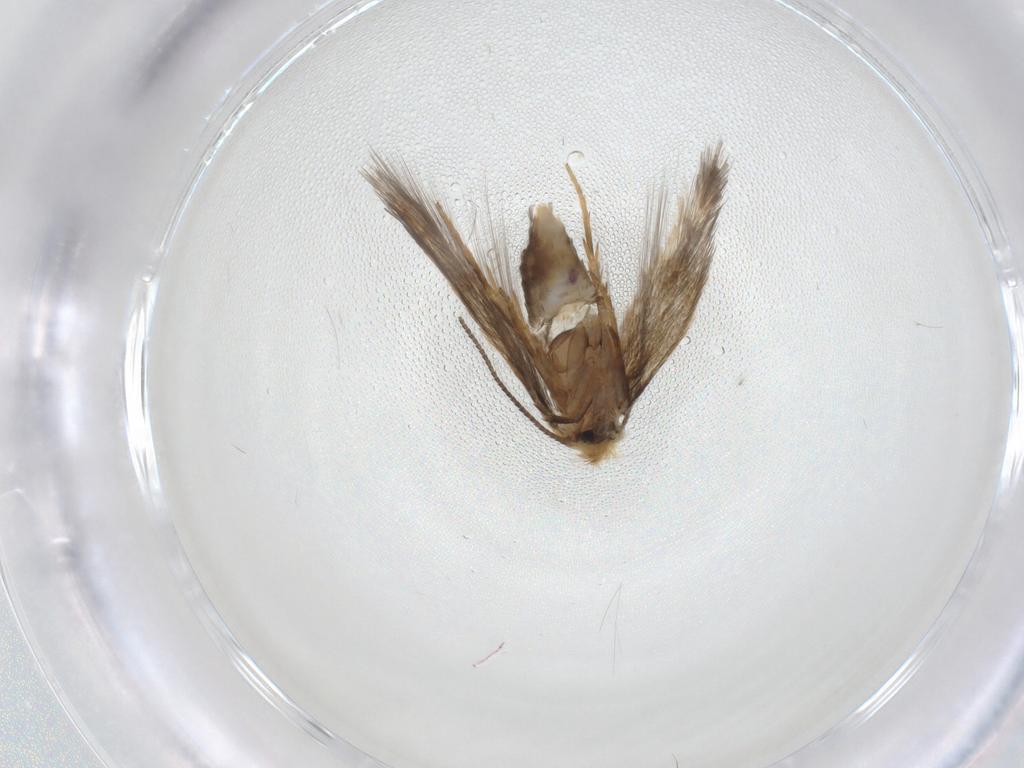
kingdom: Animalia
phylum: Arthropoda
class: Insecta
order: Lepidoptera
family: Nepticulidae
